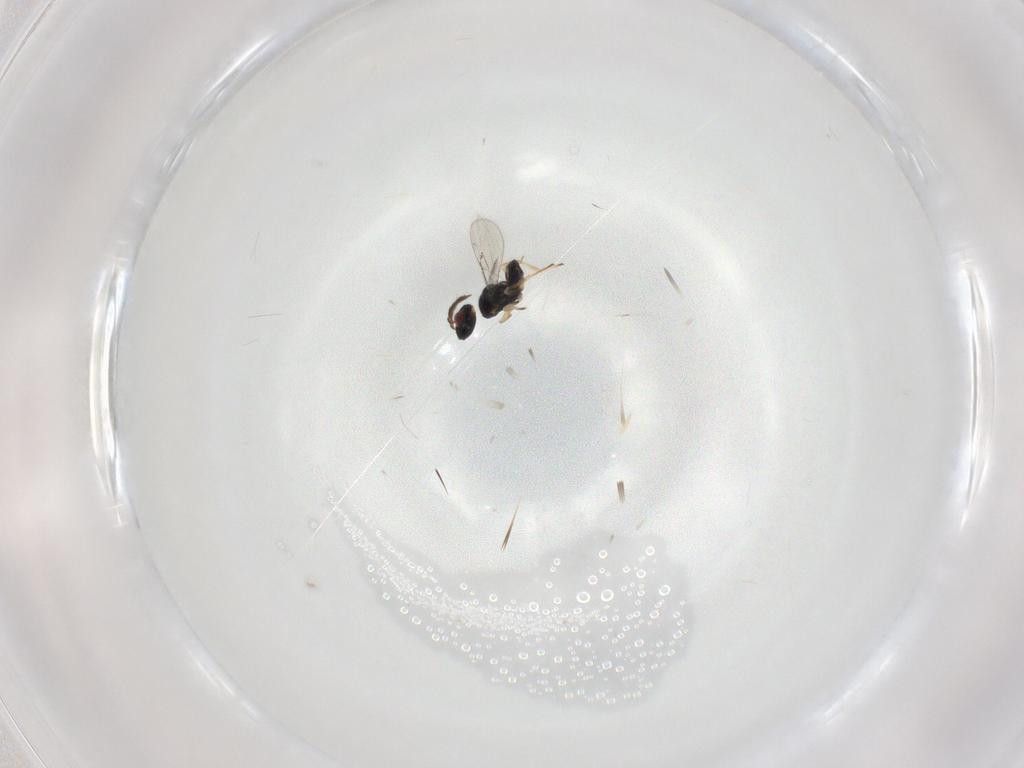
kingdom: Animalia
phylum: Arthropoda
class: Insecta
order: Hymenoptera
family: Eulophidae
